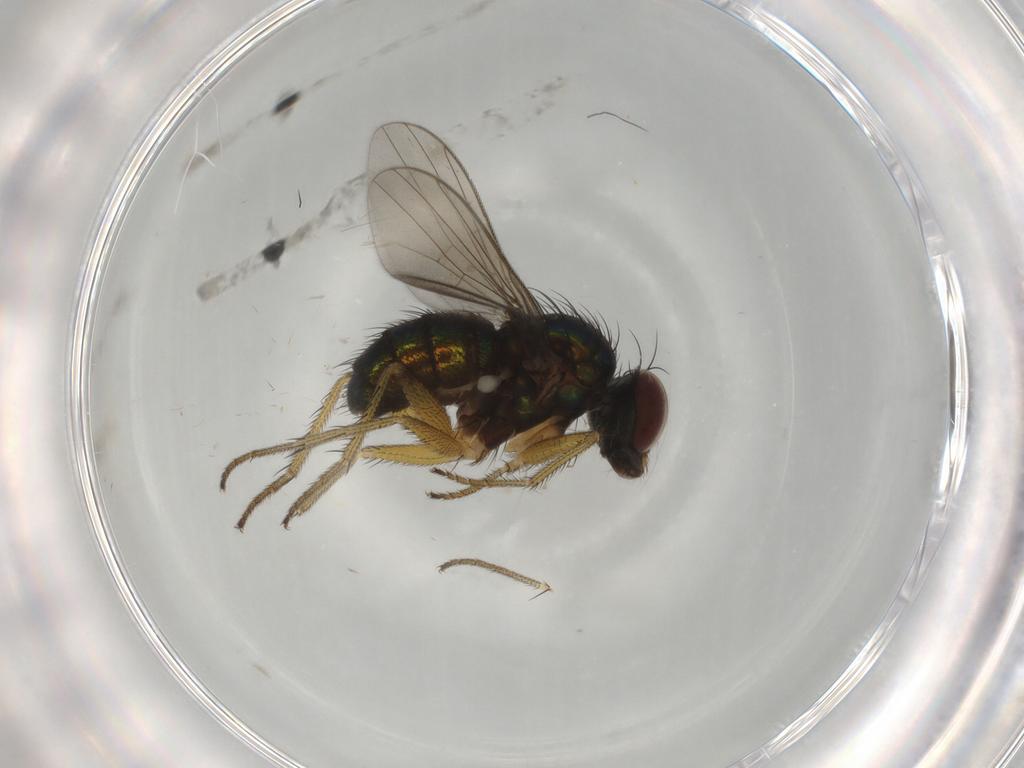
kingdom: Animalia
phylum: Arthropoda
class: Insecta
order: Diptera
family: Dolichopodidae
